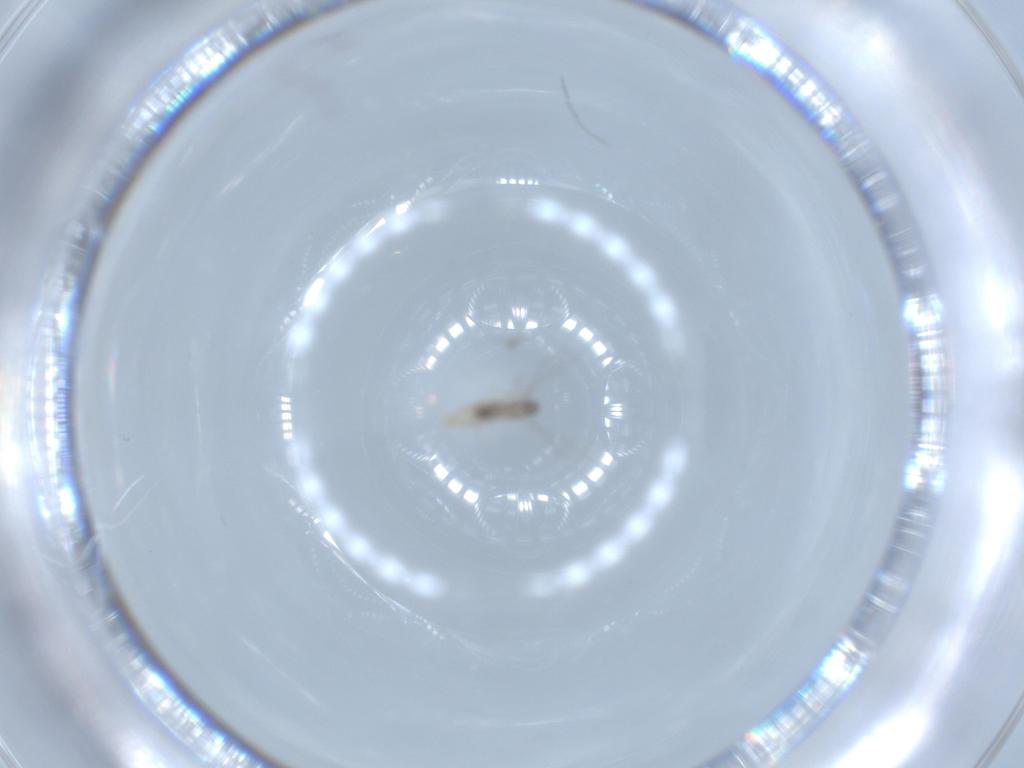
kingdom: Animalia
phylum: Arthropoda
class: Insecta
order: Diptera
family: Cecidomyiidae
